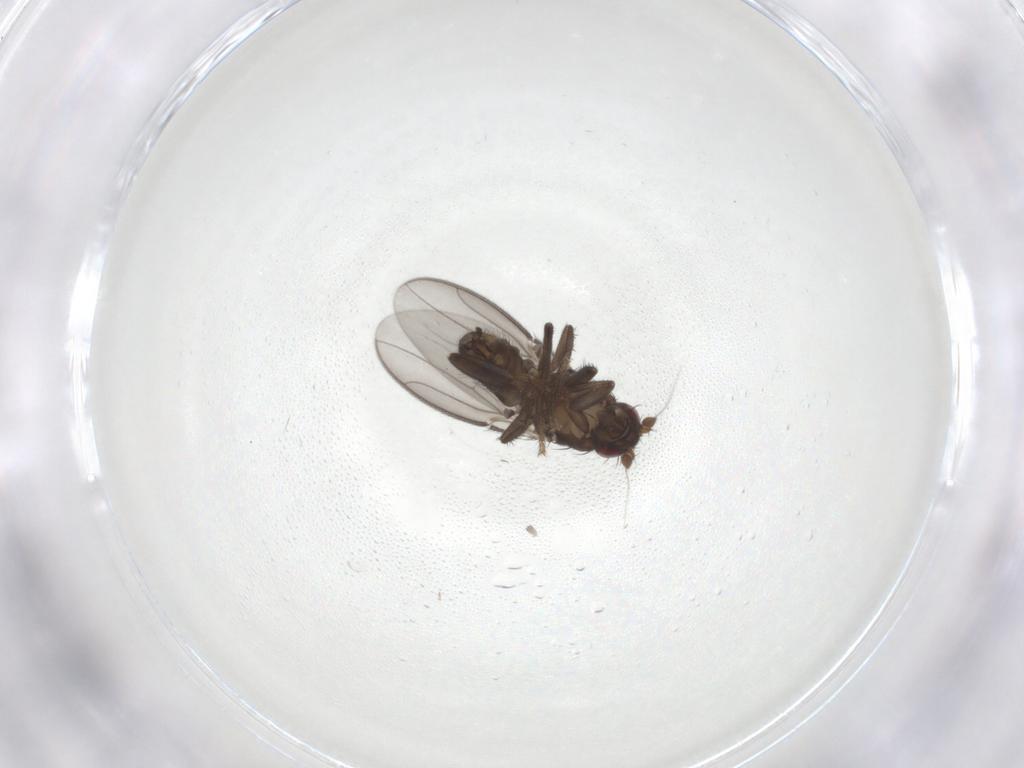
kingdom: Animalia
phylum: Arthropoda
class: Insecta
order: Diptera
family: Sphaeroceridae
